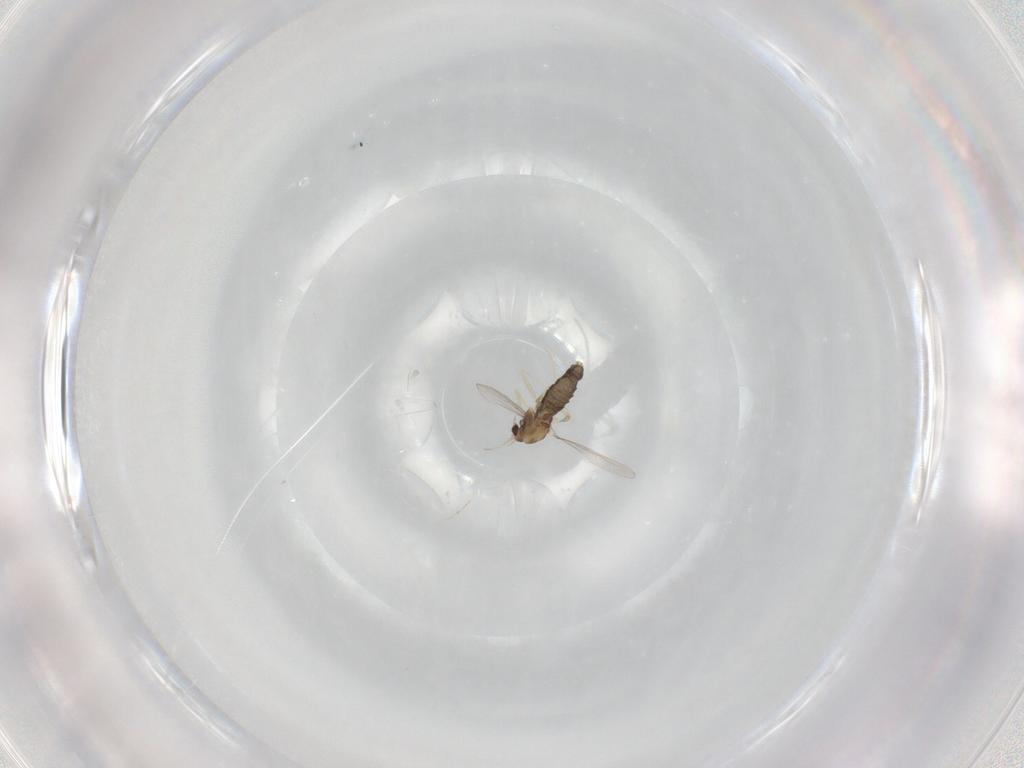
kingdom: Animalia
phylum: Arthropoda
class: Insecta
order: Diptera
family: Chironomidae
